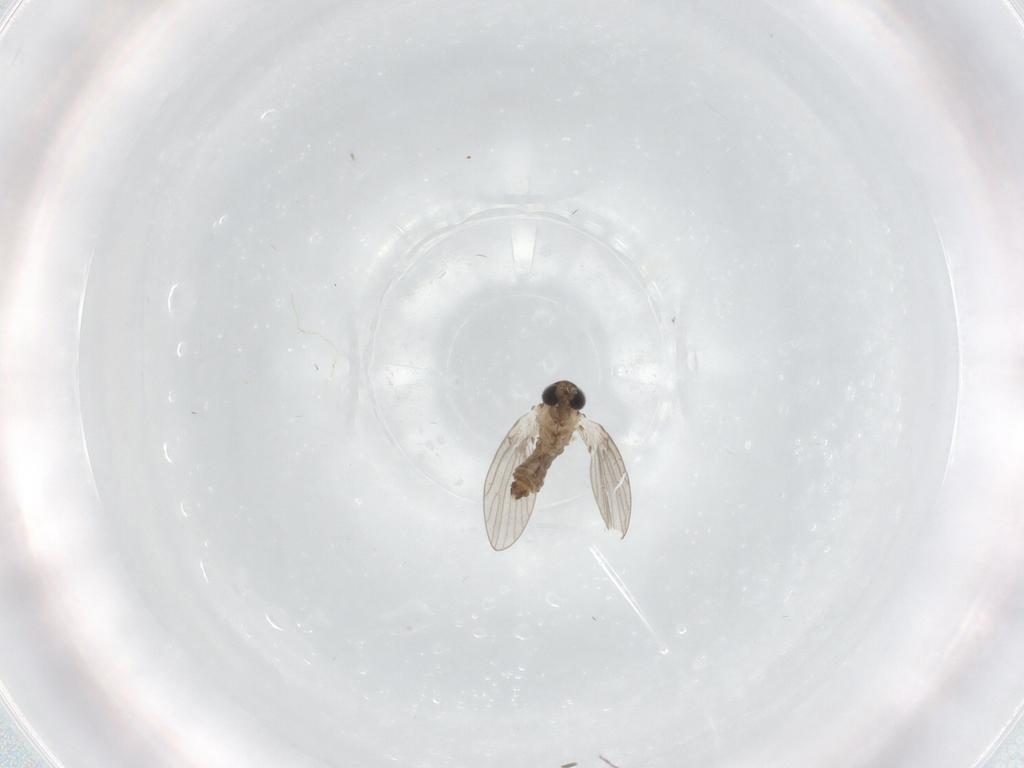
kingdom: Animalia
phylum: Arthropoda
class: Insecta
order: Diptera
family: Psychodidae
